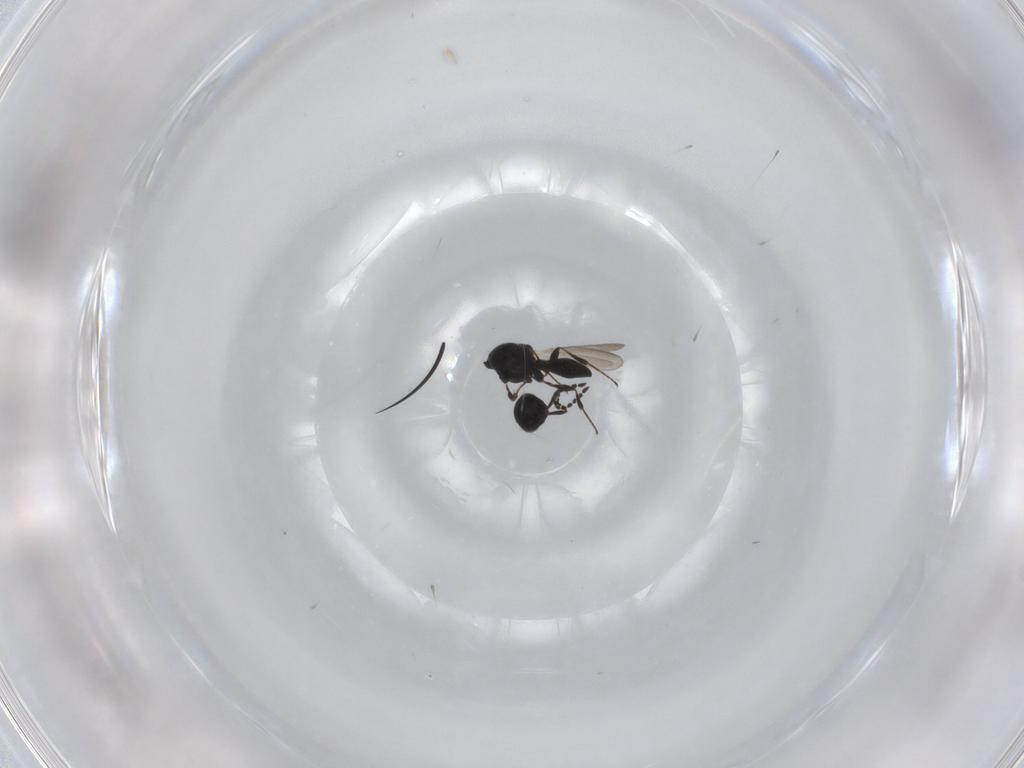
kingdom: Animalia
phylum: Arthropoda
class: Insecta
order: Hymenoptera
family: Platygastridae
